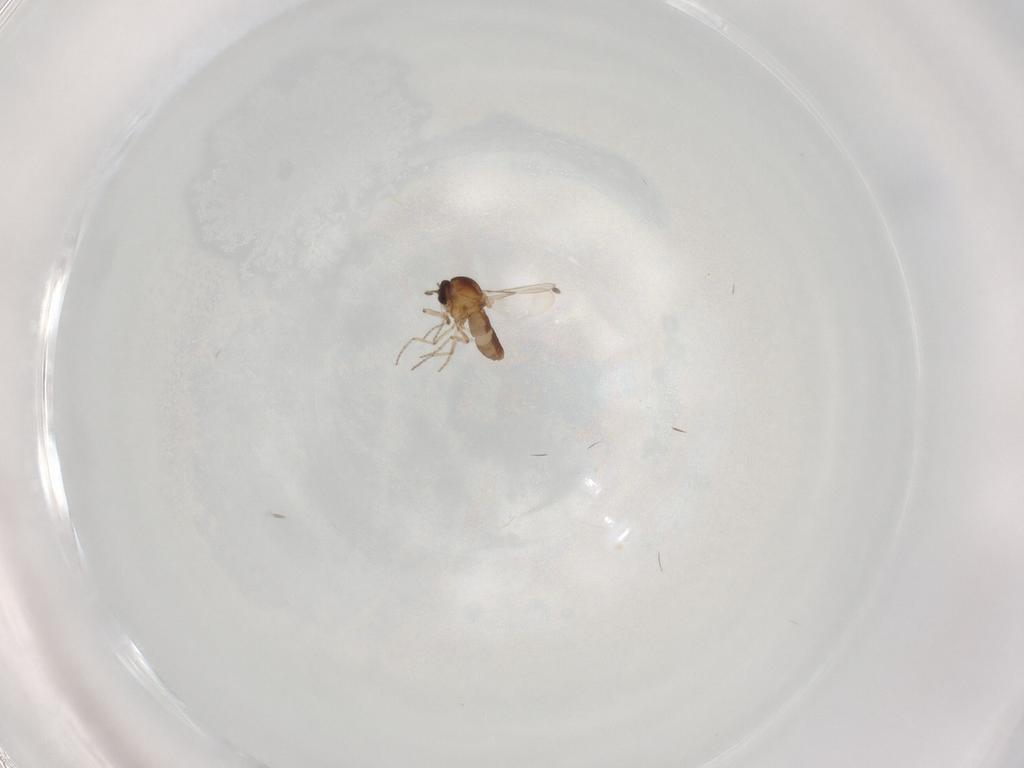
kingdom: Animalia
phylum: Arthropoda
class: Insecta
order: Diptera
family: Ceratopogonidae
